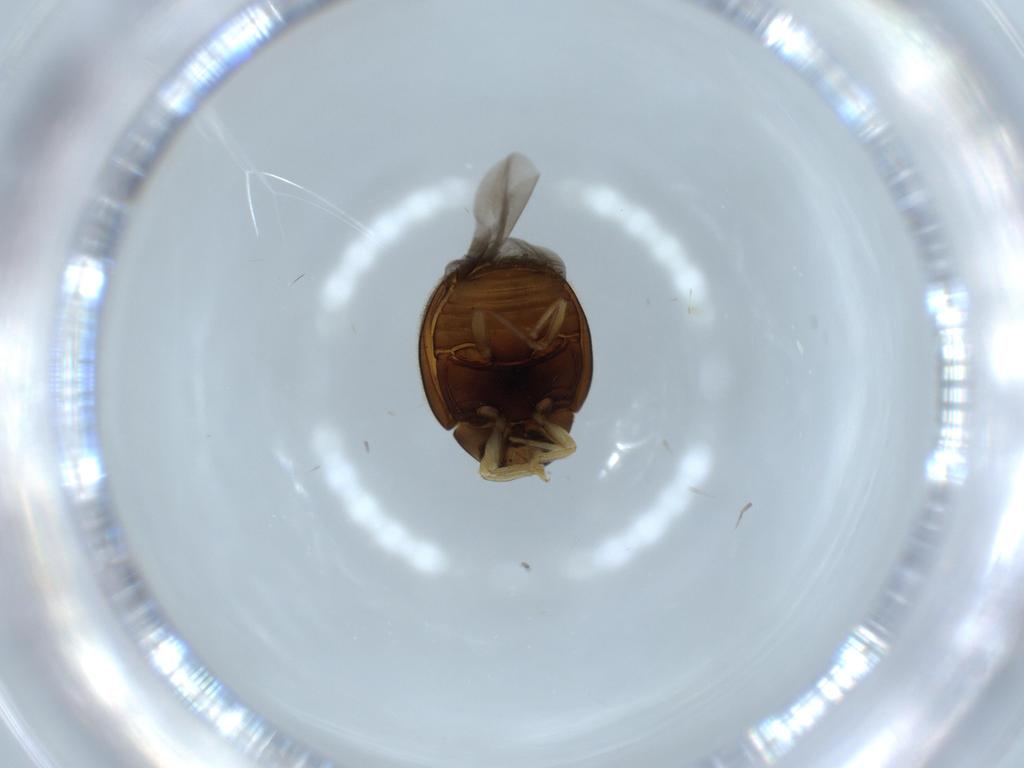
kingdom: Animalia
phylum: Arthropoda
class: Insecta
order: Coleoptera
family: Coccinellidae
